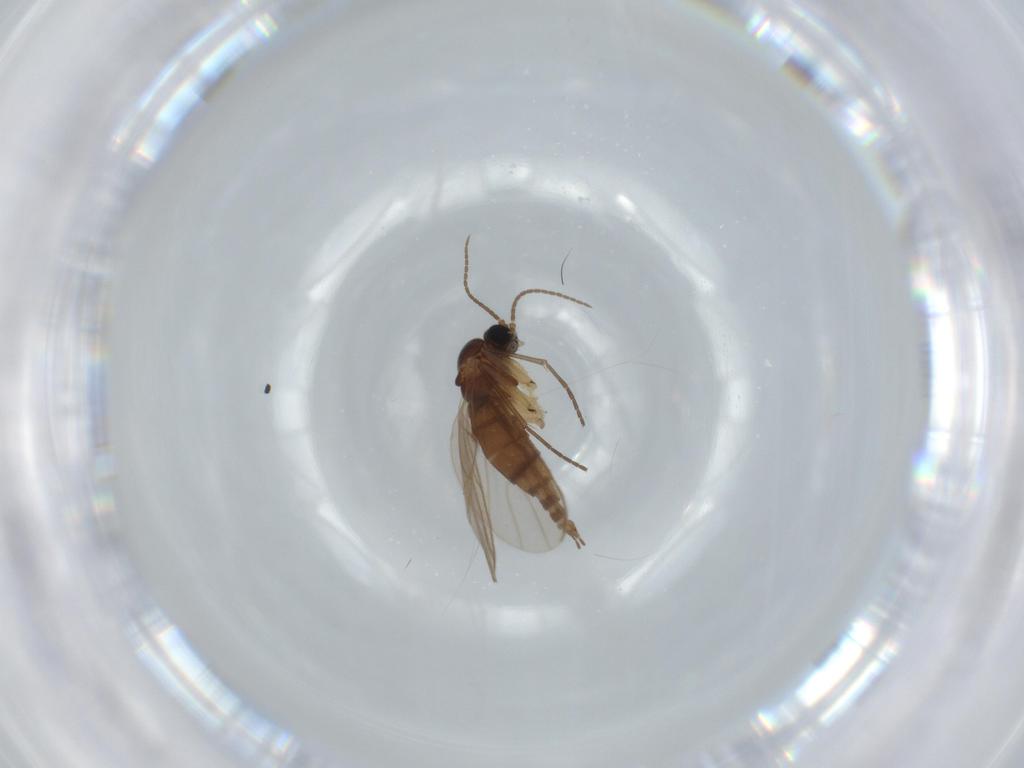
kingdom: Animalia
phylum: Arthropoda
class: Insecta
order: Diptera
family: Sciaridae
